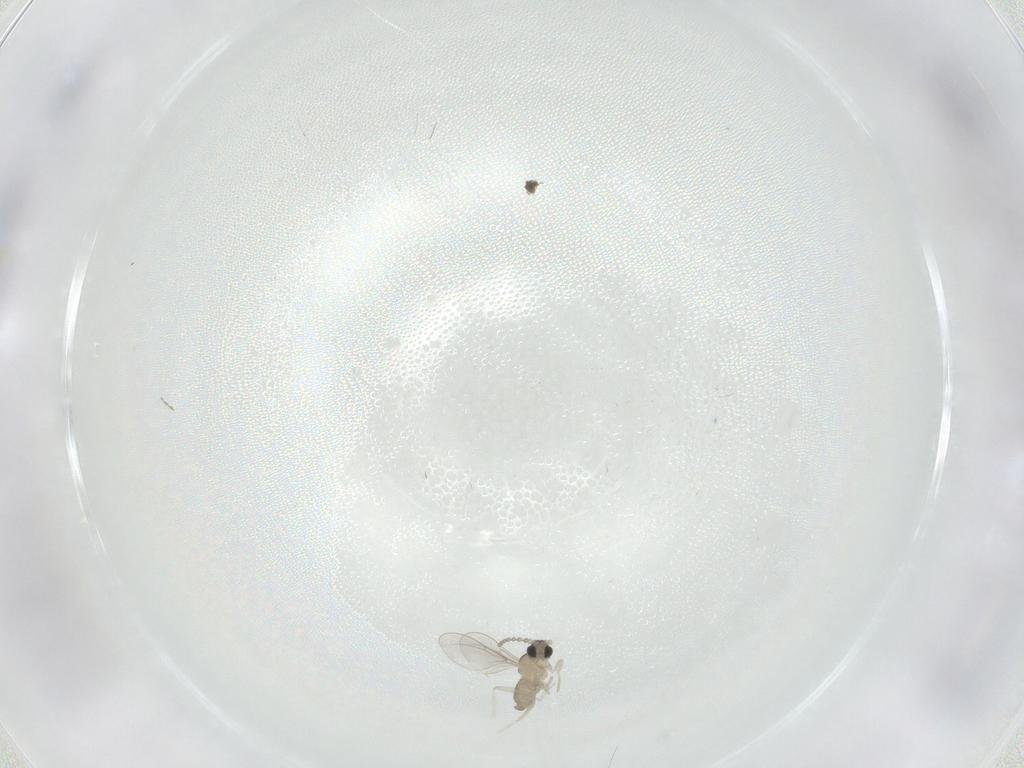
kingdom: Animalia
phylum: Arthropoda
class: Insecta
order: Diptera
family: Cecidomyiidae
